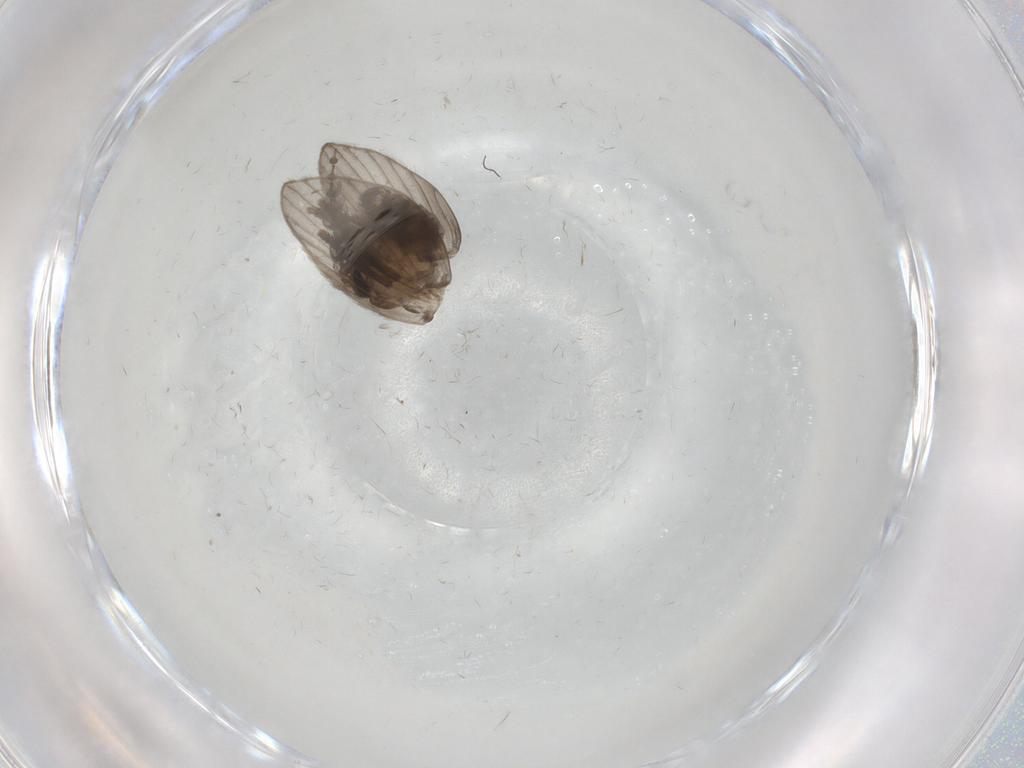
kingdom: Animalia
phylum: Arthropoda
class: Insecta
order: Diptera
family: Psychodidae
